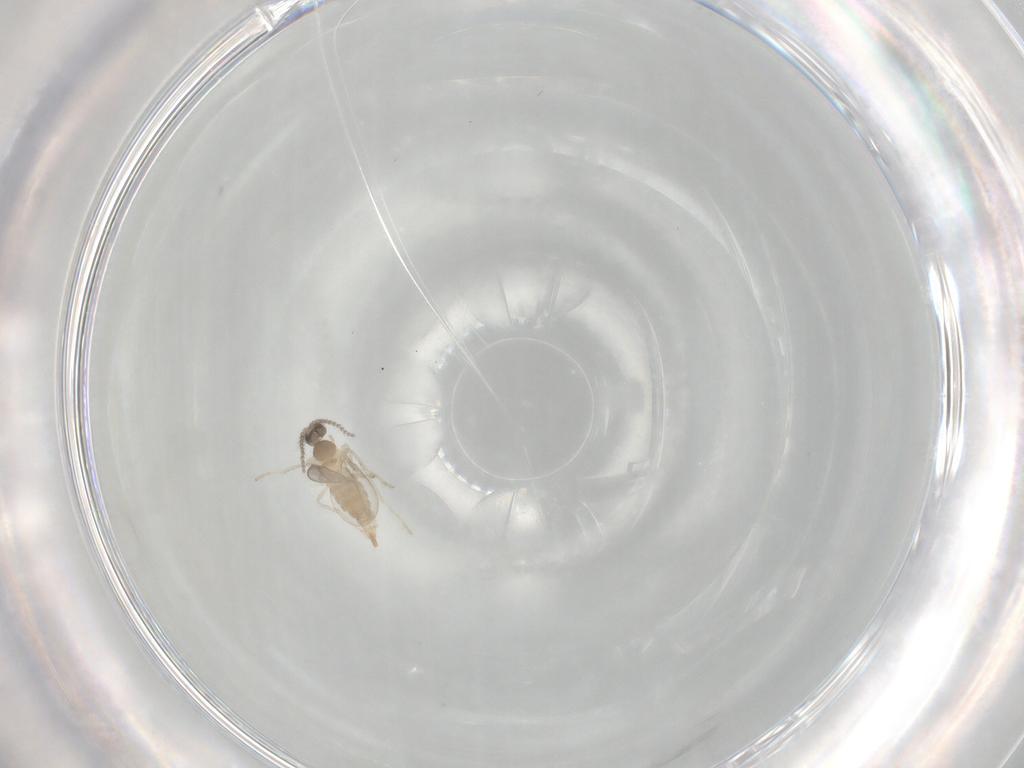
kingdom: Animalia
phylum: Arthropoda
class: Insecta
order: Diptera
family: Cecidomyiidae
